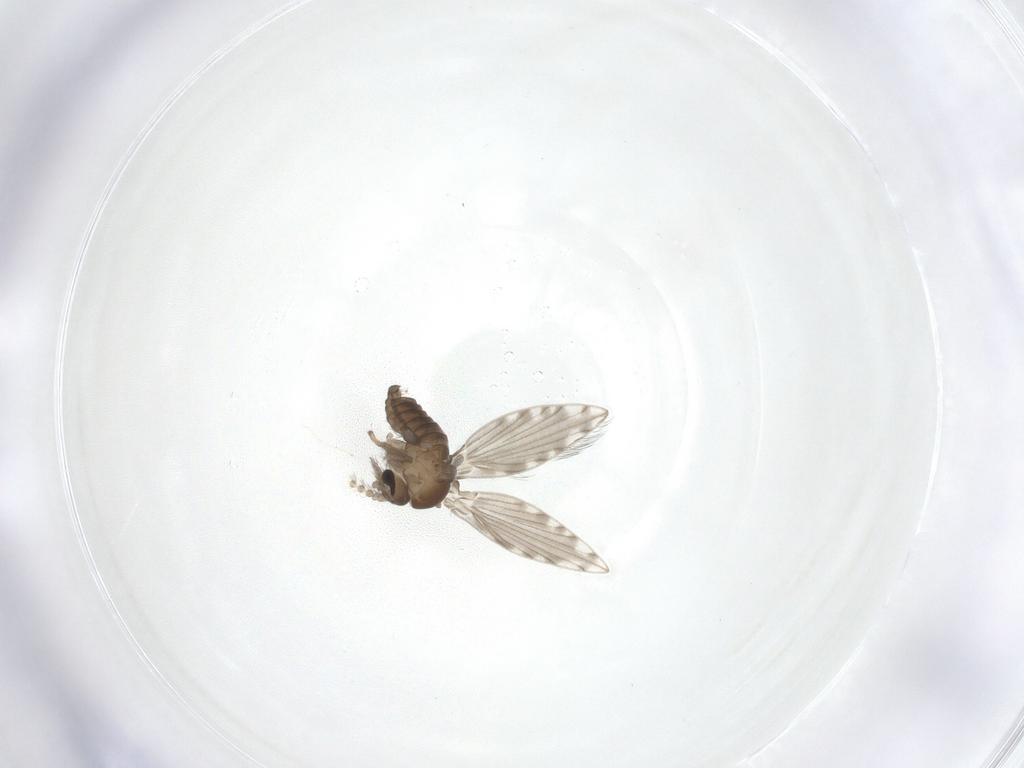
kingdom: Animalia
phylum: Arthropoda
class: Insecta
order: Diptera
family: Psychodidae
